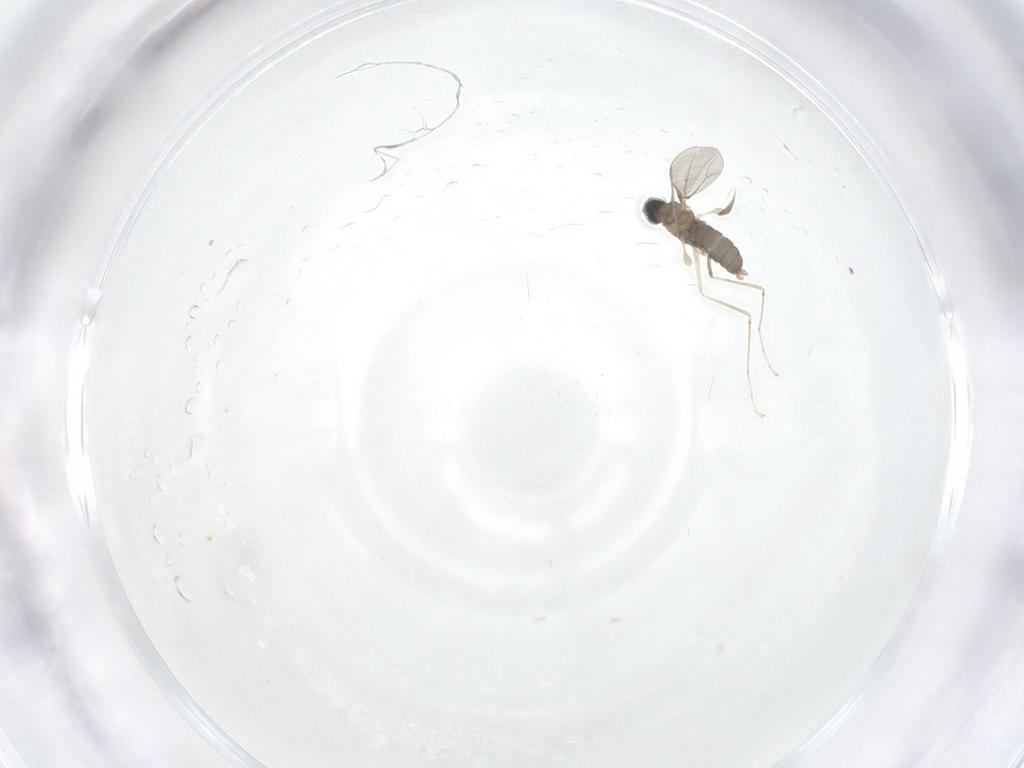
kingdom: Animalia
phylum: Arthropoda
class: Insecta
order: Diptera
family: Cecidomyiidae
